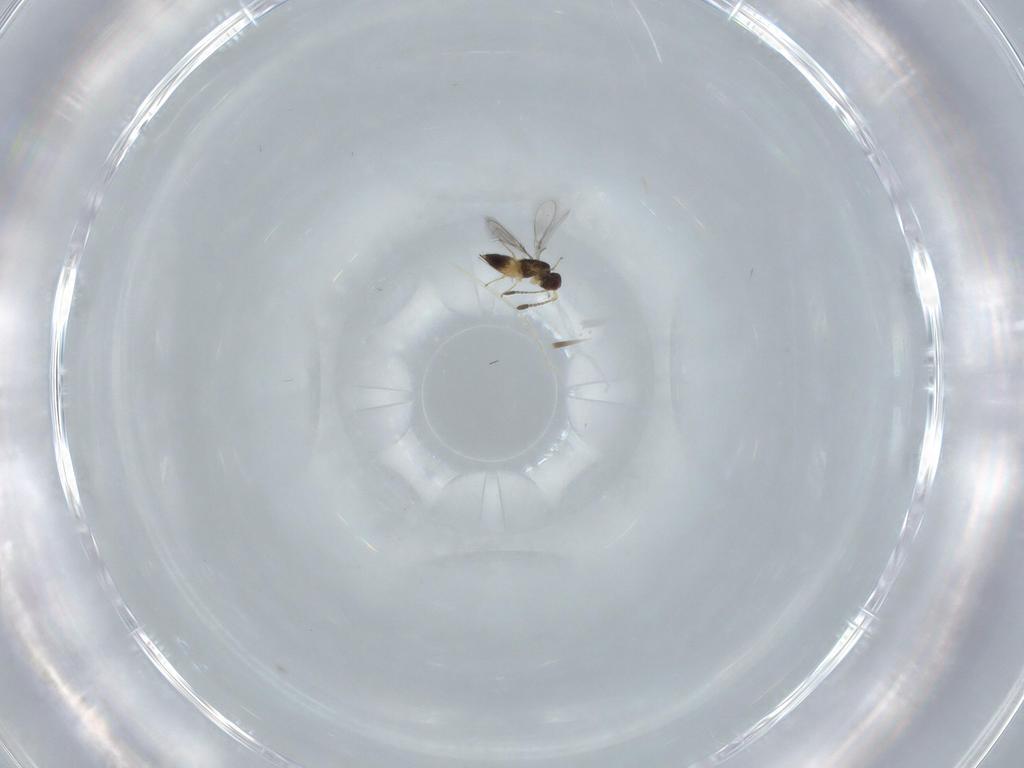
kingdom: Animalia
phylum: Arthropoda
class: Insecta
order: Hymenoptera
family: Mymaridae
